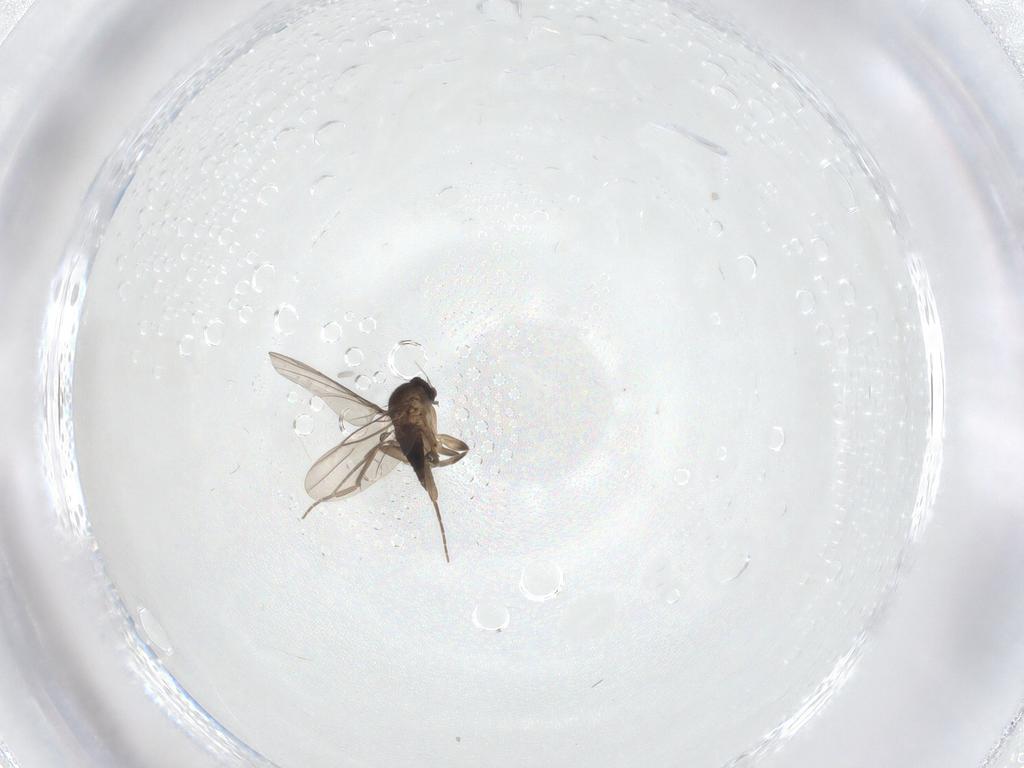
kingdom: Animalia
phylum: Arthropoda
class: Insecta
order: Diptera
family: Phoridae
